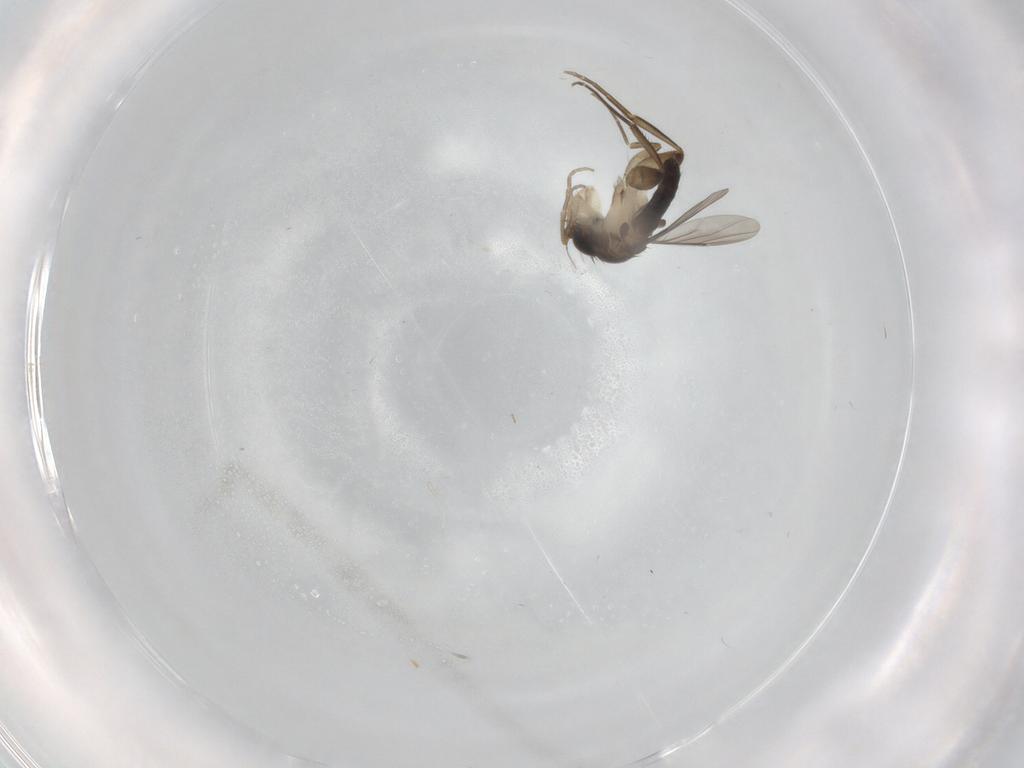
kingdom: Animalia
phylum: Arthropoda
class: Insecta
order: Diptera
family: Phoridae
